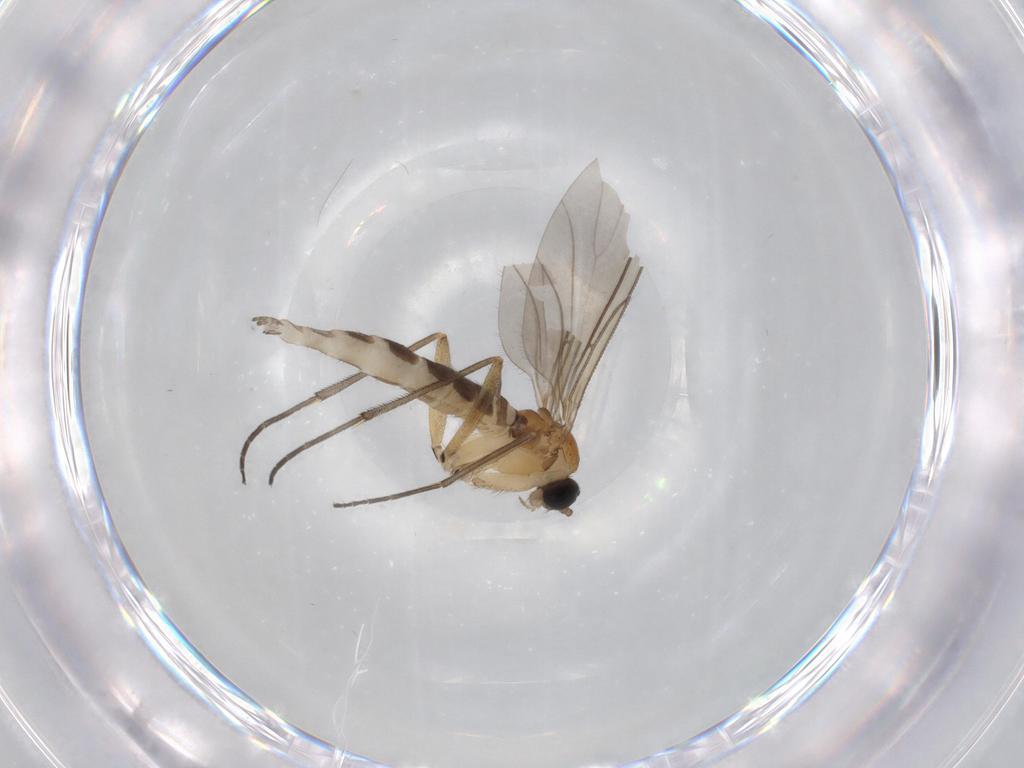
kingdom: Animalia
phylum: Arthropoda
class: Insecta
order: Diptera
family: Sciaridae
